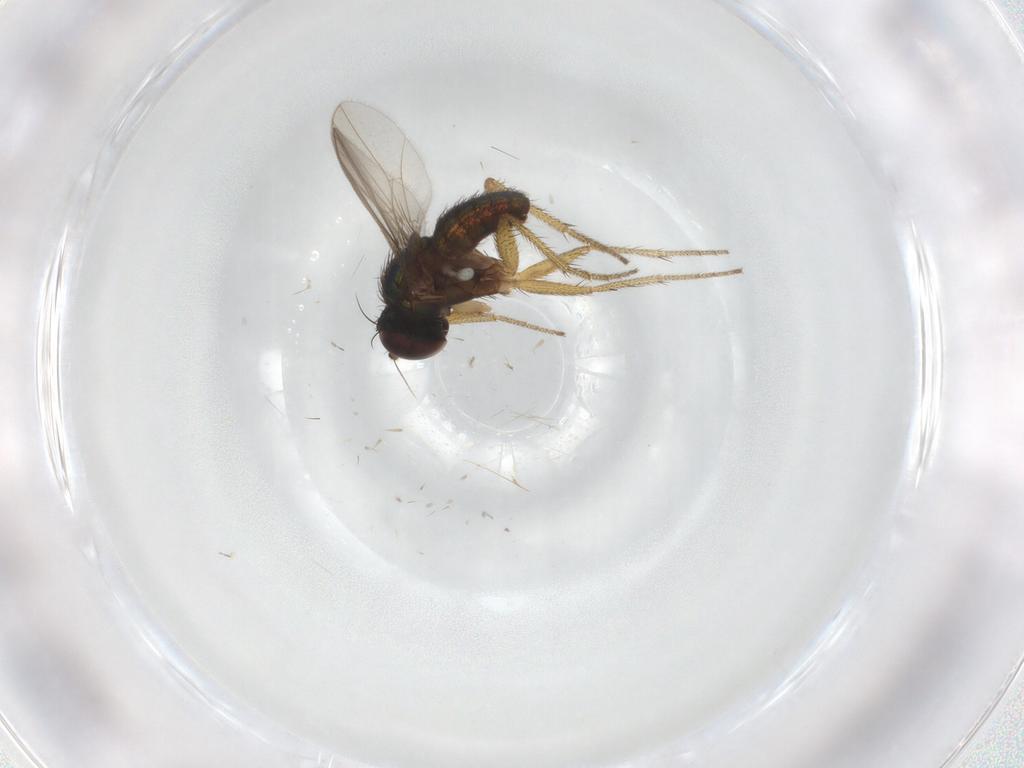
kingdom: Animalia
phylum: Arthropoda
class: Insecta
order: Diptera
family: Dolichopodidae
